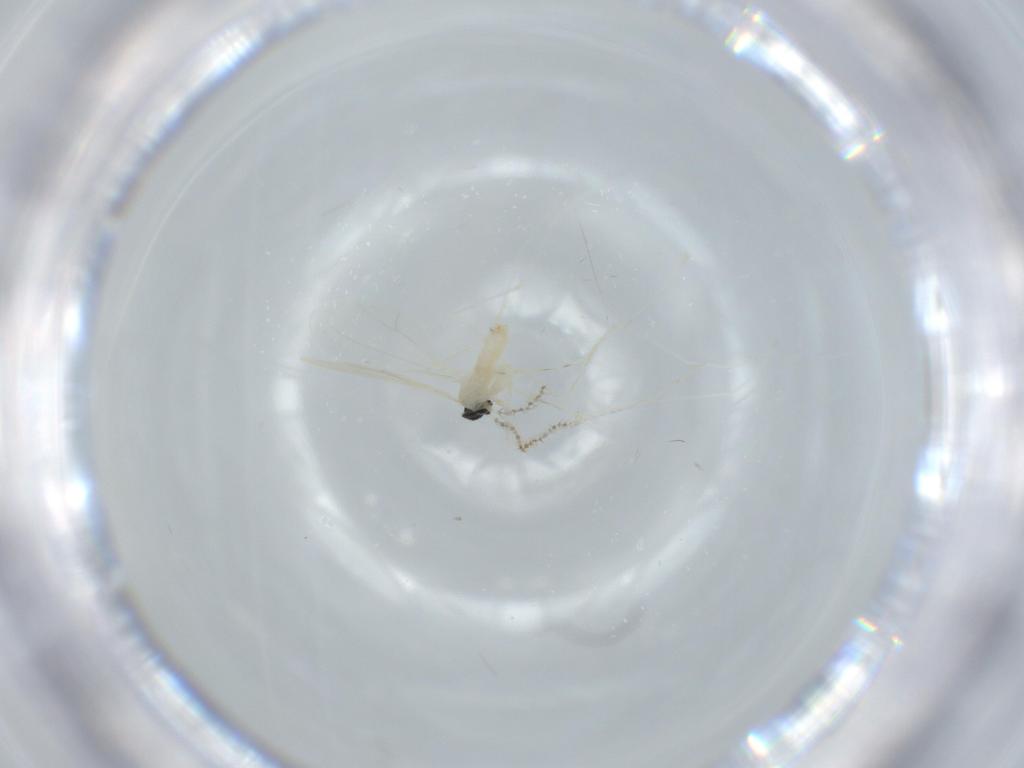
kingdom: Animalia
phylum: Arthropoda
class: Insecta
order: Diptera
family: Cecidomyiidae
